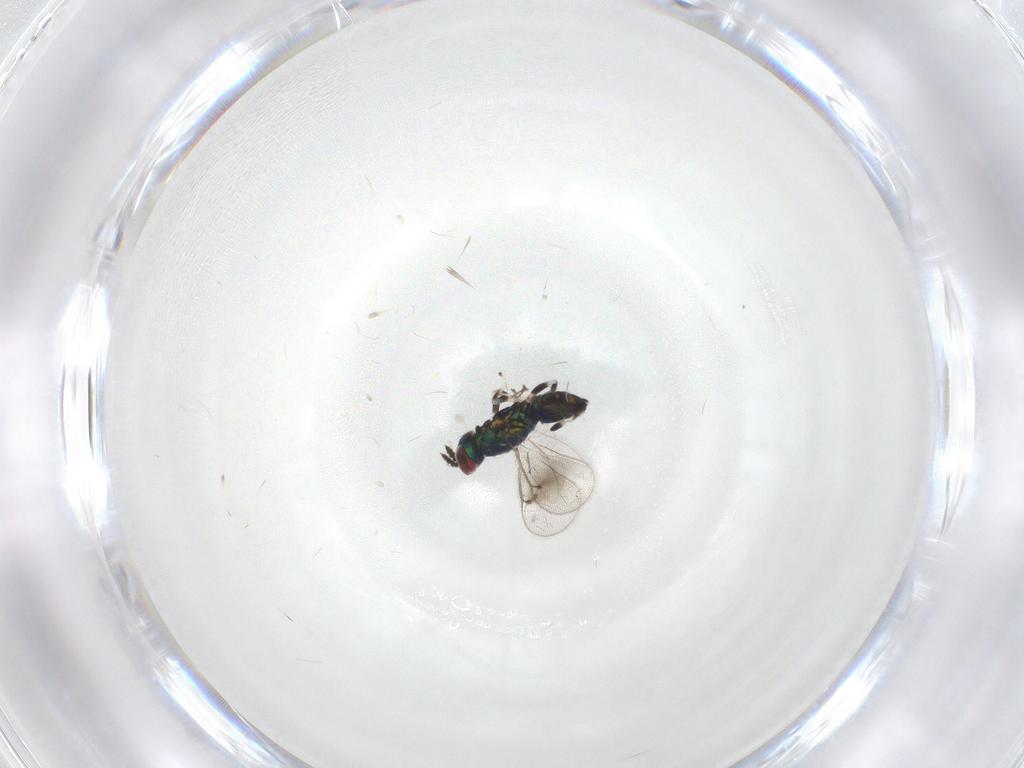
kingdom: Animalia
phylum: Arthropoda
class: Insecta
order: Hymenoptera
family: Eulophidae
